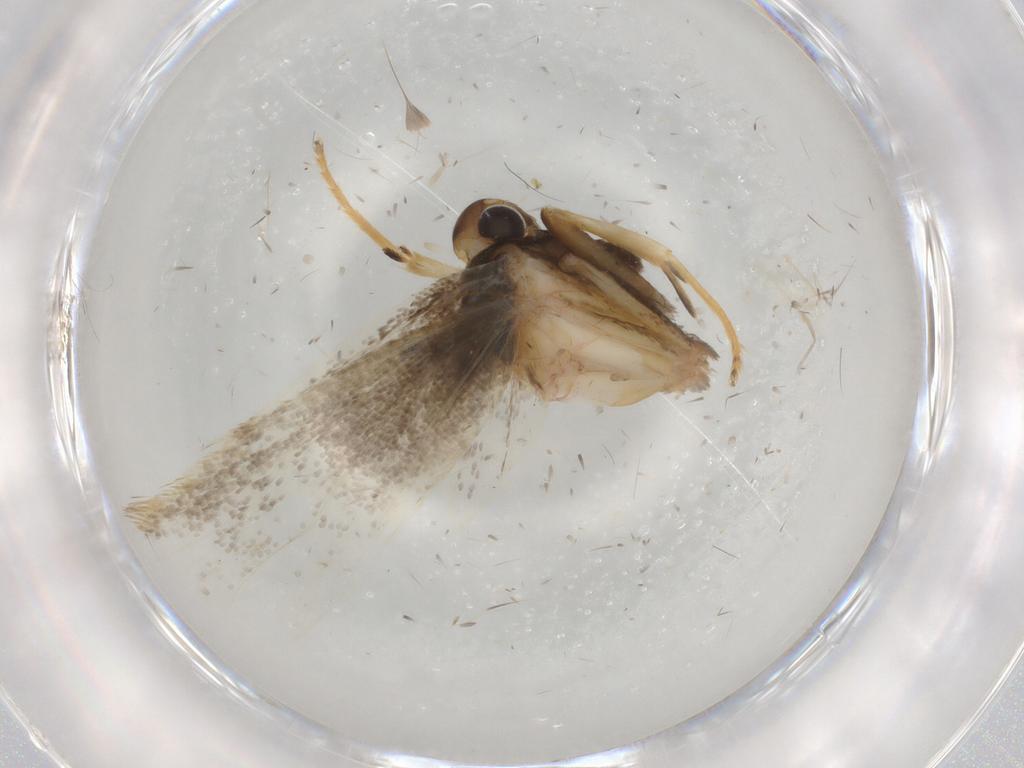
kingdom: Animalia
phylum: Arthropoda
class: Insecta
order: Lepidoptera
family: Lecithoceridae
